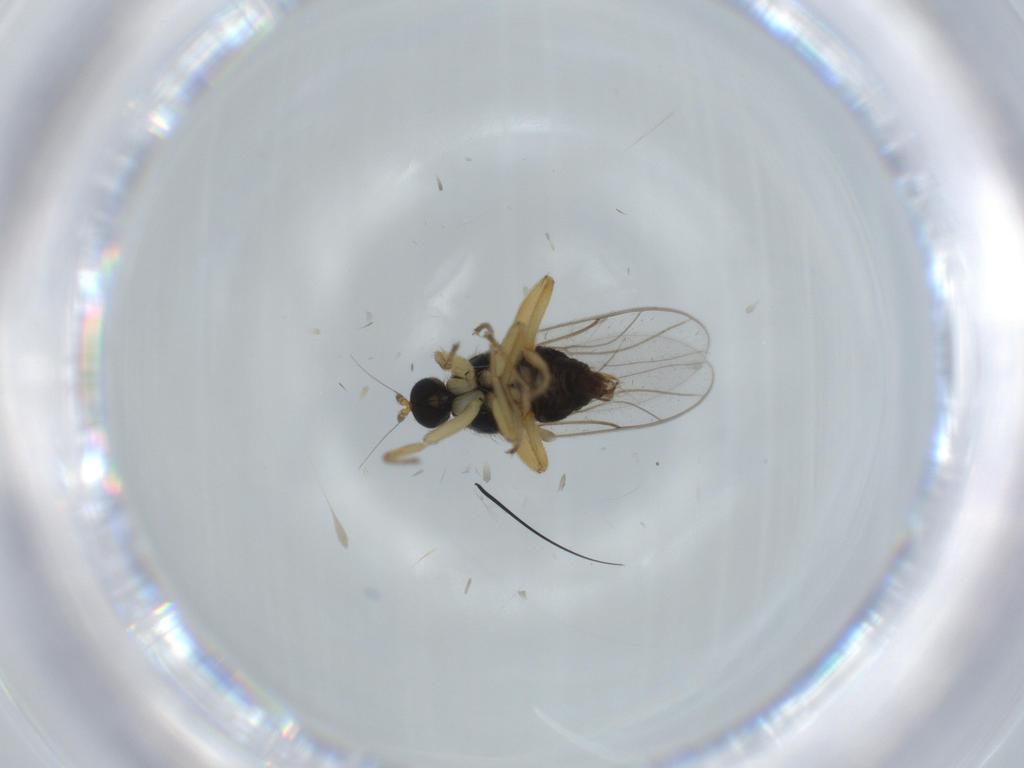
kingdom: Animalia
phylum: Arthropoda
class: Insecta
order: Diptera
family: Hybotidae
